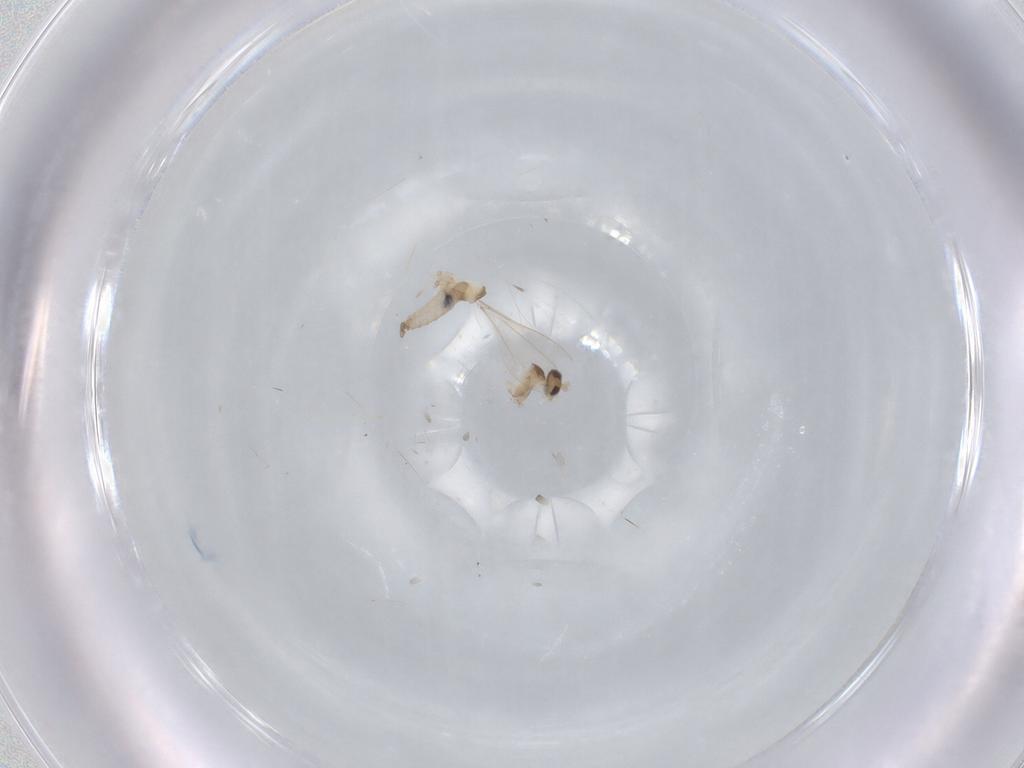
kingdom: Animalia
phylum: Arthropoda
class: Insecta
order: Diptera
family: Cecidomyiidae
